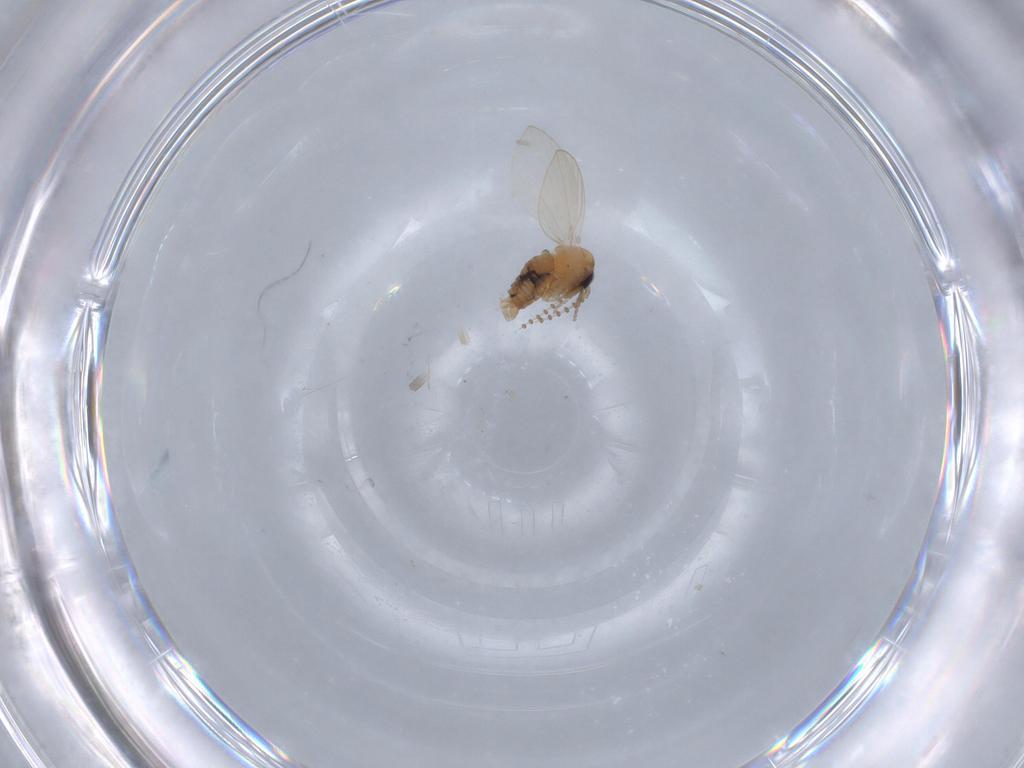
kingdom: Animalia
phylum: Arthropoda
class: Insecta
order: Diptera
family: Psychodidae
